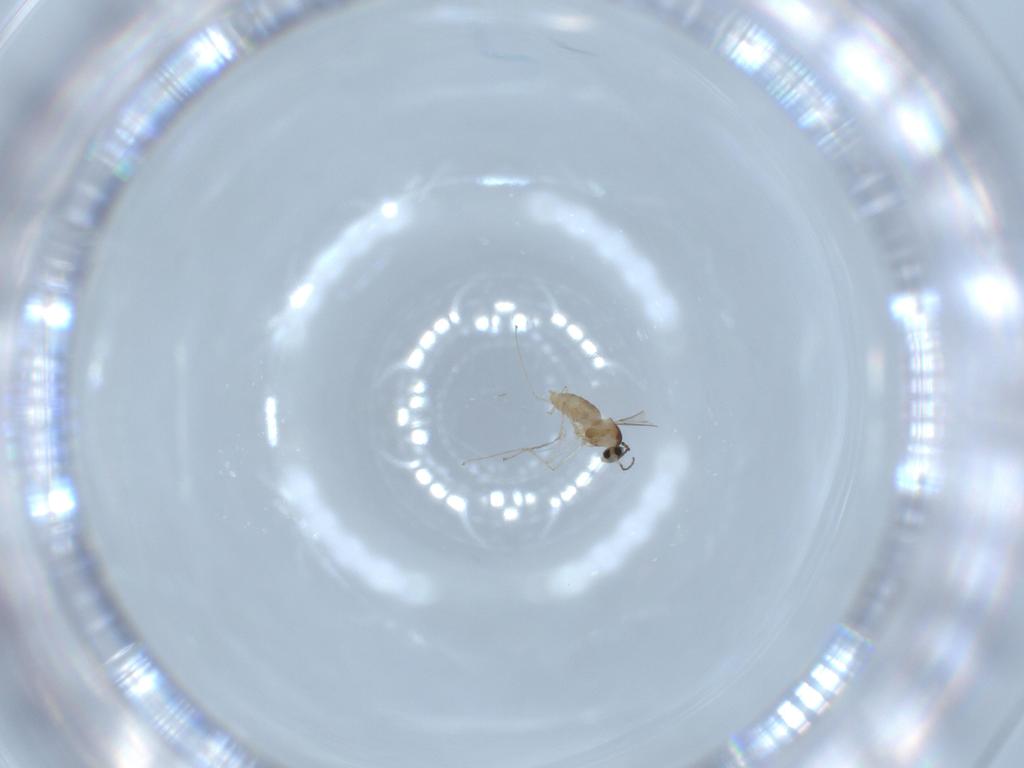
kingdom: Animalia
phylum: Arthropoda
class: Insecta
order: Diptera
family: Cecidomyiidae
